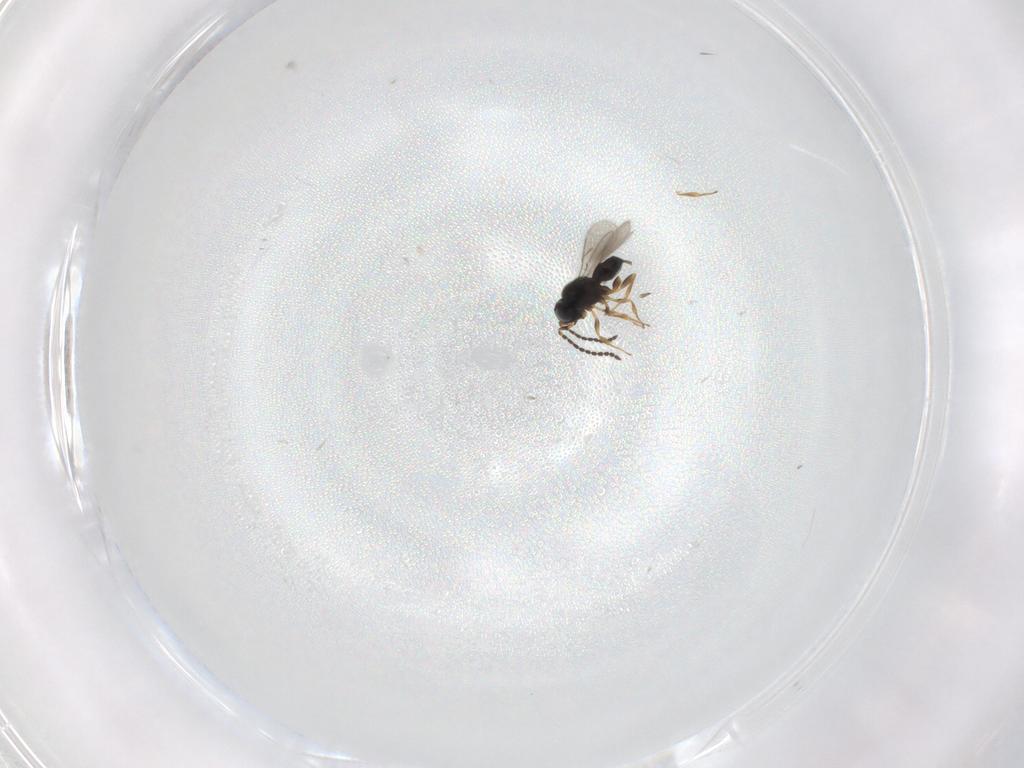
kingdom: Animalia
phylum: Arthropoda
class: Insecta
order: Hymenoptera
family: Scelionidae
